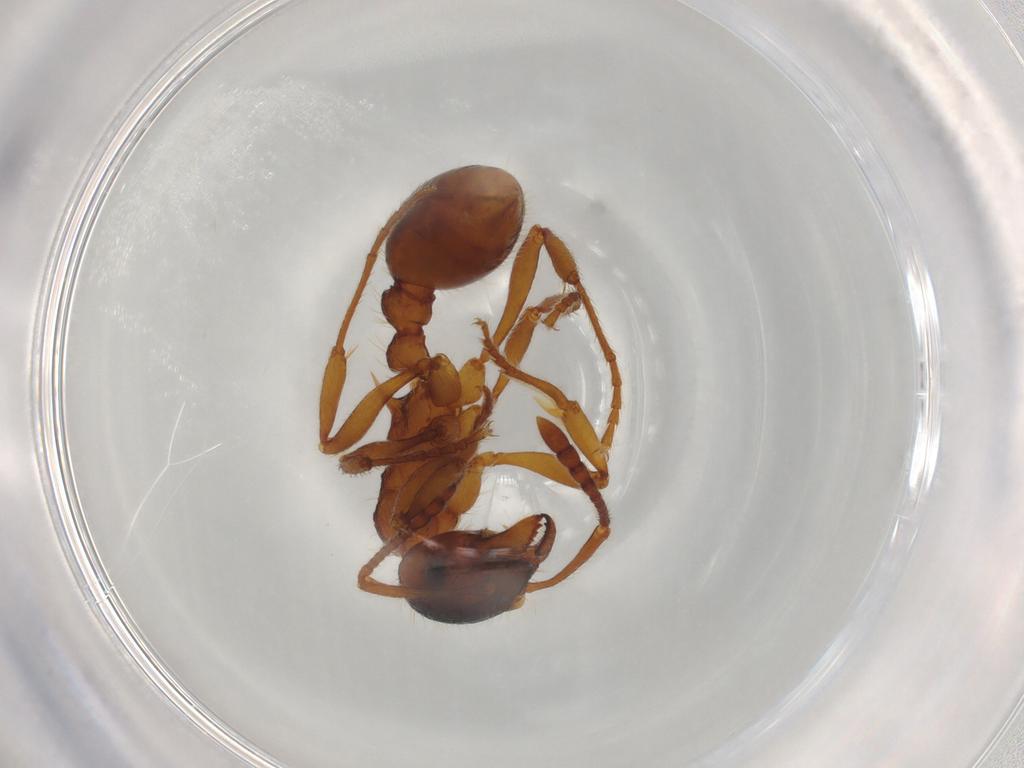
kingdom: Animalia
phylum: Arthropoda
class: Insecta
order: Hymenoptera
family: Formicidae
